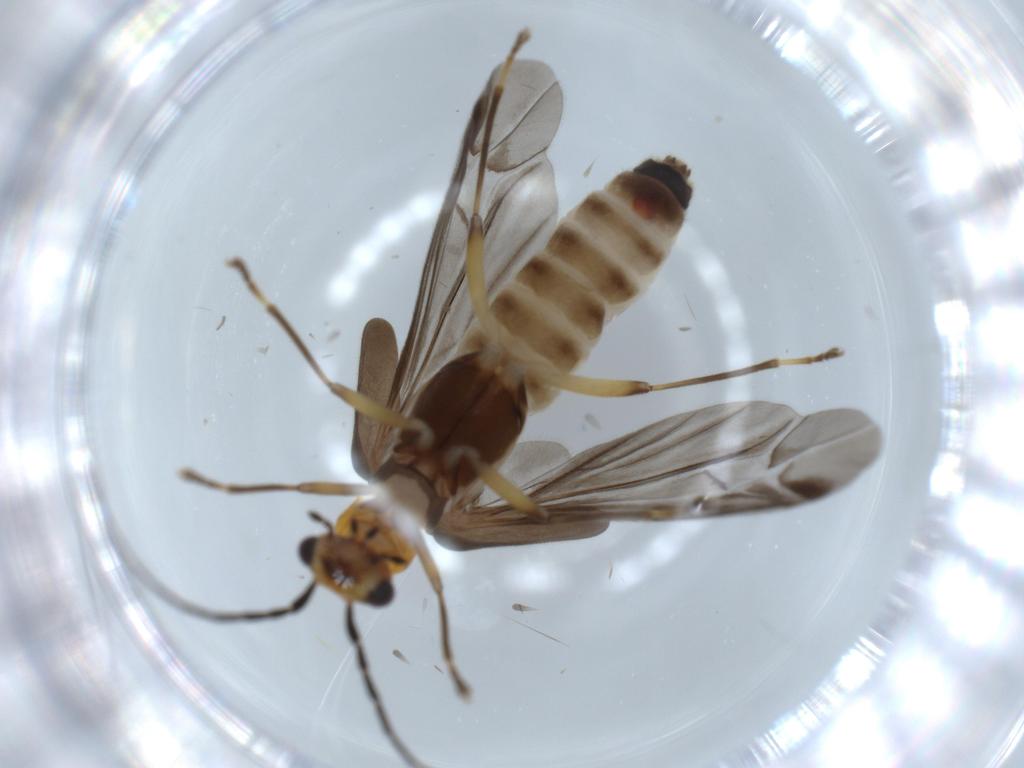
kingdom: Animalia
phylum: Arthropoda
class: Insecta
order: Coleoptera
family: Cantharidae
